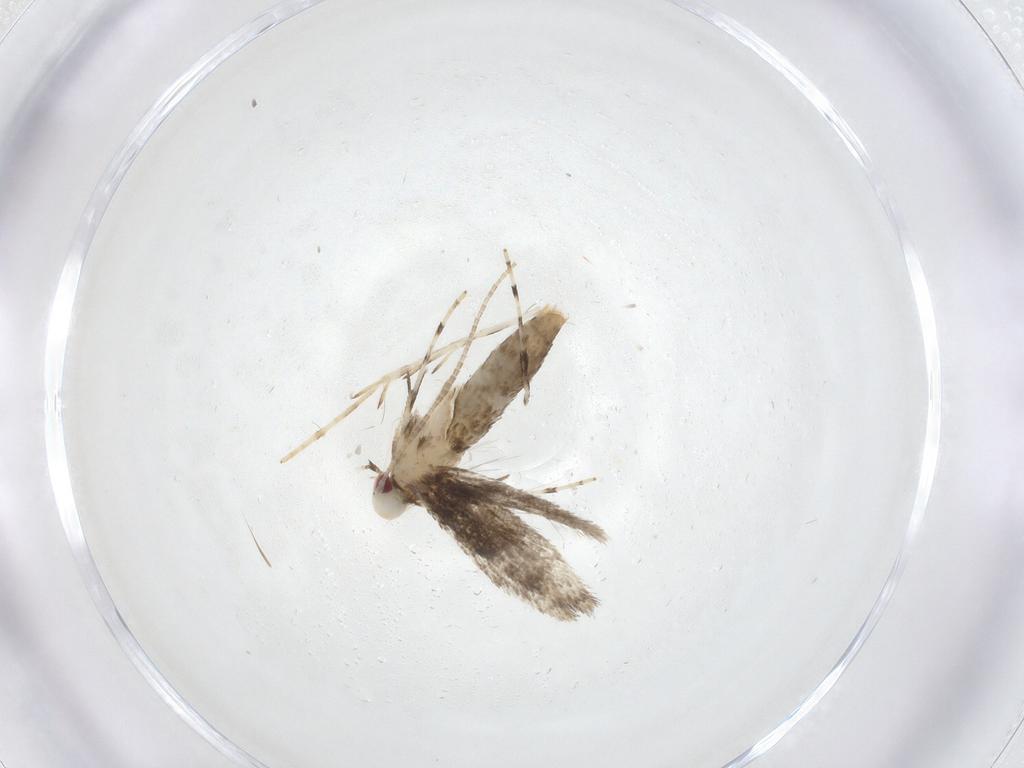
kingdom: Animalia
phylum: Arthropoda
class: Insecta
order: Lepidoptera
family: Gracillariidae
